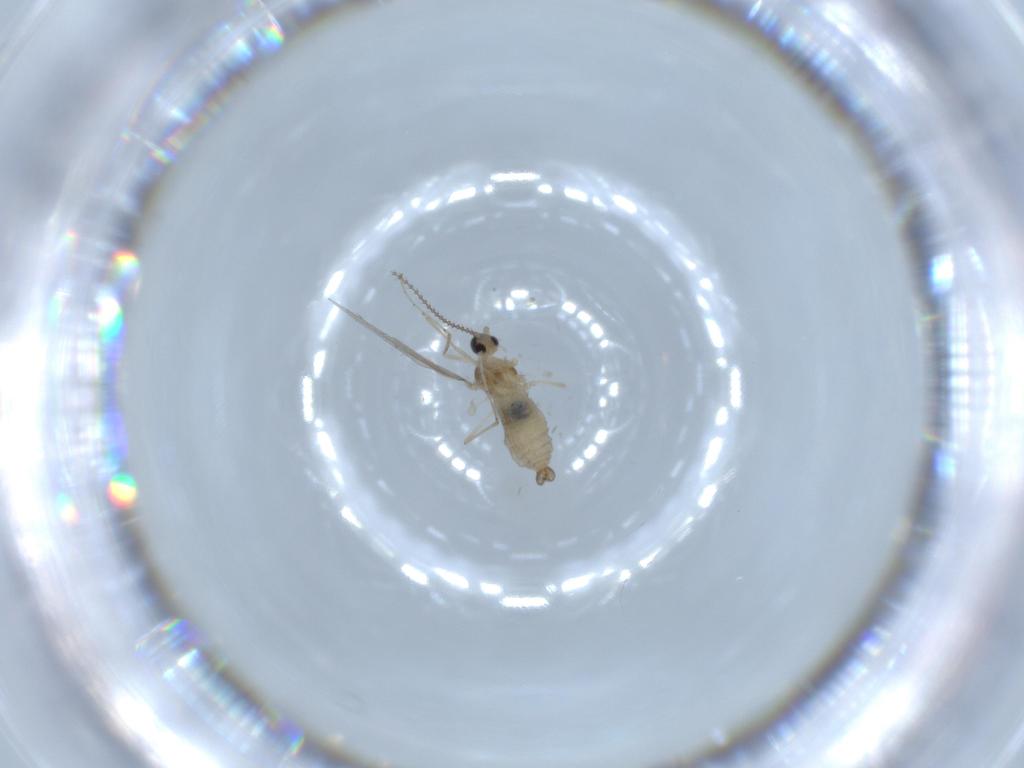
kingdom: Animalia
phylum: Arthropoda
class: Insecta
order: Diptera
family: Cecidomyiidae
